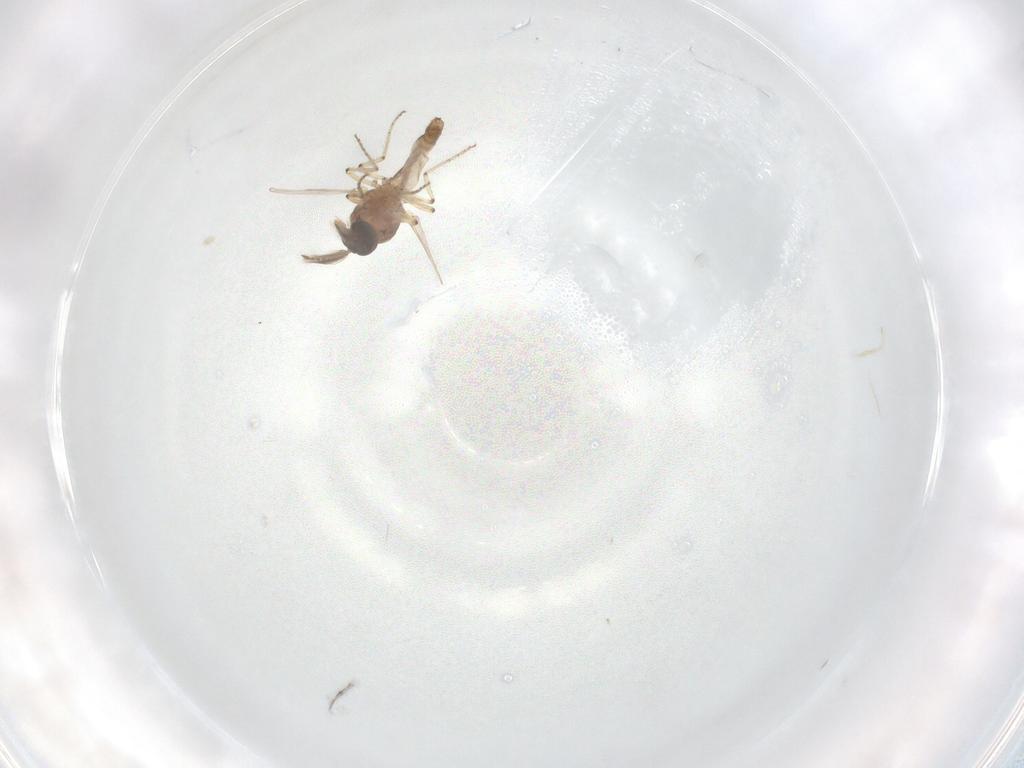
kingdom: Animalia
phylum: Arthropoda
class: Insecta
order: Diptera
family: Ceratopogonidae
